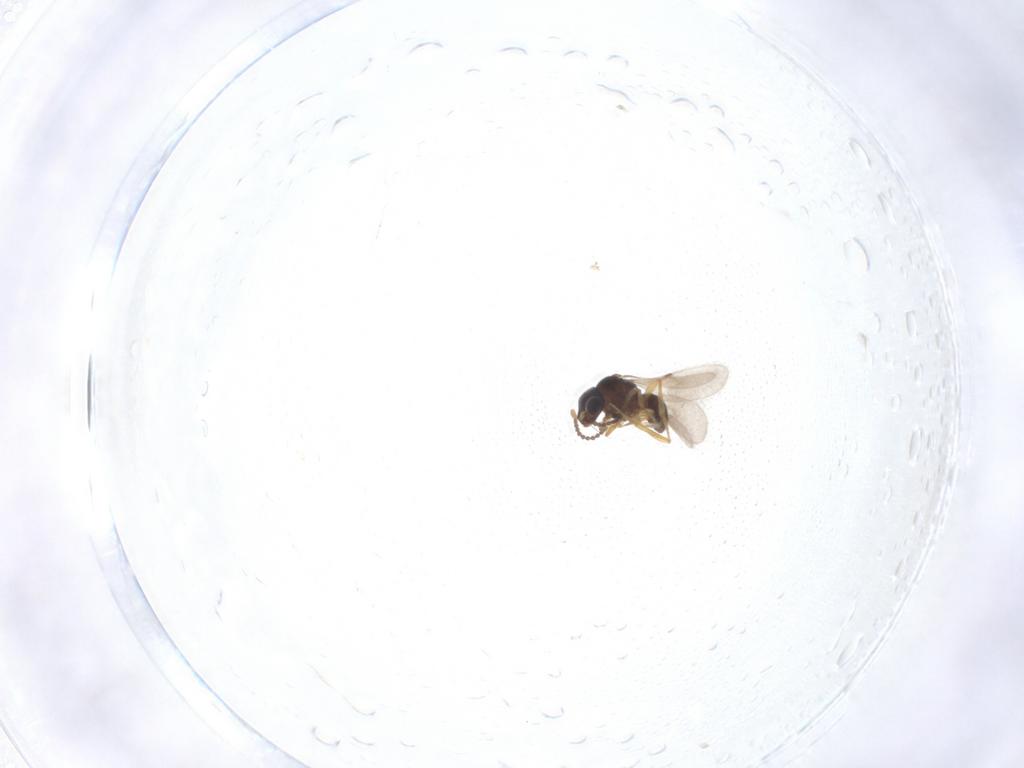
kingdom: Animalia
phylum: Arthropoda
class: Insecta
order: Hymenoptera
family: Scelionidae
